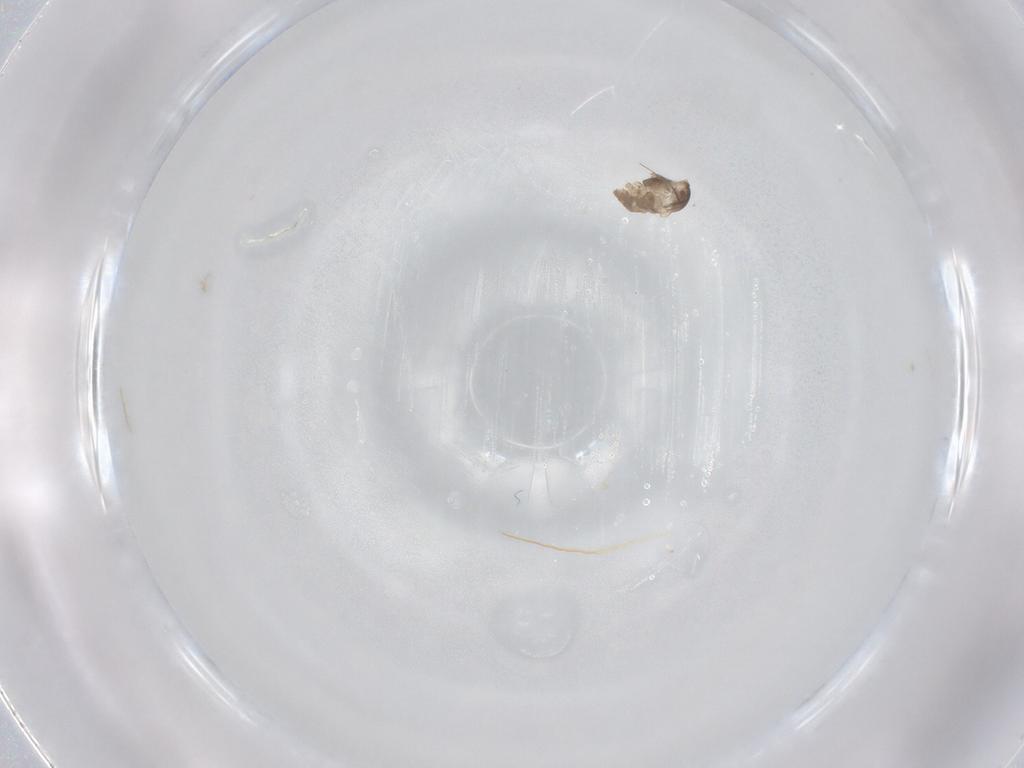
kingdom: Animalia
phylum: Arthropoda
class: Insecta
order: Diptera
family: Cecidomyiidae
